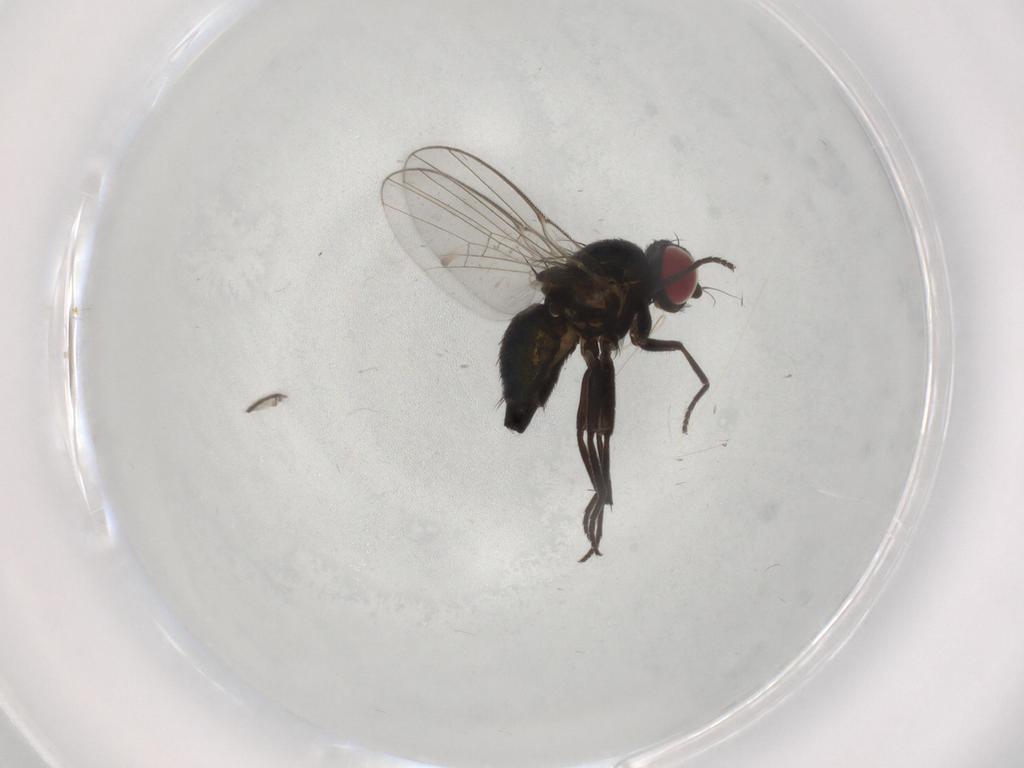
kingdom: Animalia
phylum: Arthropoda
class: Insecta
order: Diptera
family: Agromyzidae
